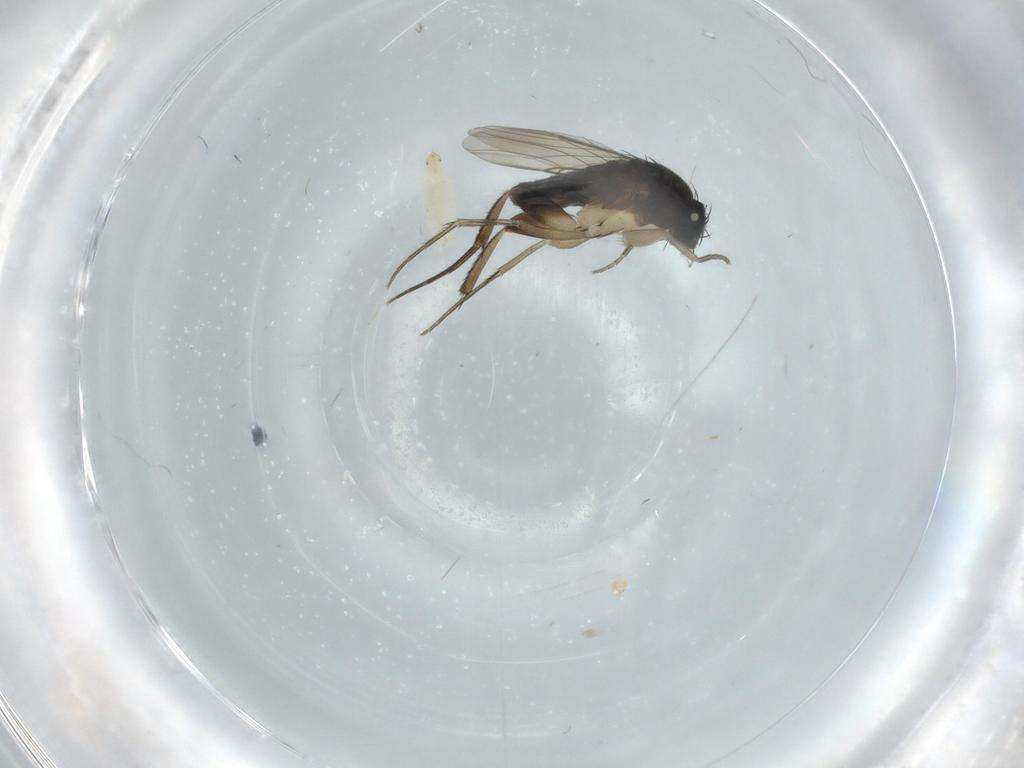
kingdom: Animalia
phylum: Arthropoda
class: Insecta
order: Diptera
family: Phoridae
